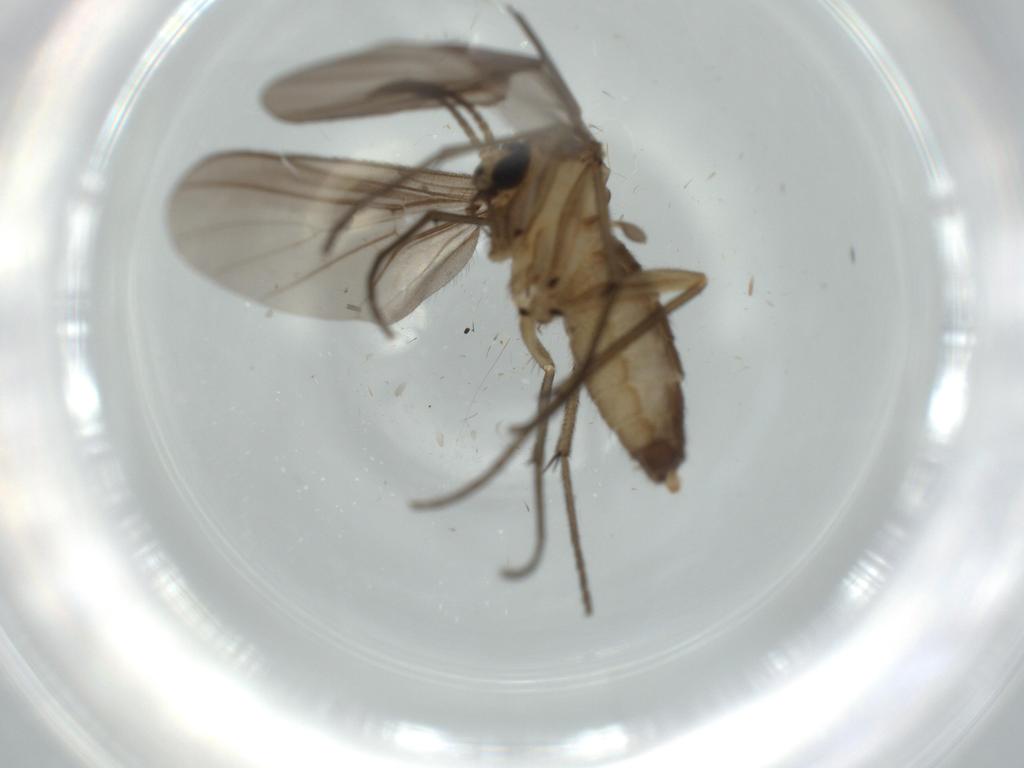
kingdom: Animalia
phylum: Arthropoda
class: Insecta
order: Diptera
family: Diadocidiidae
